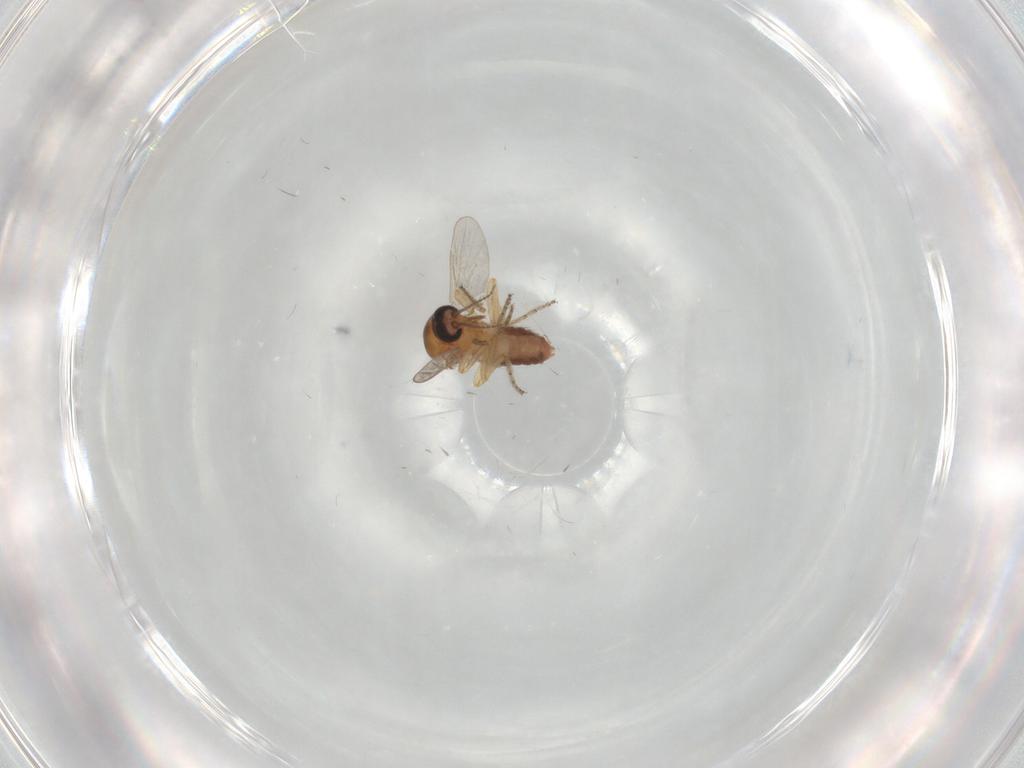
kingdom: Animalia
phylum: Arthropoda
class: Insecta
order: Diptera
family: Ceratopogonidae
